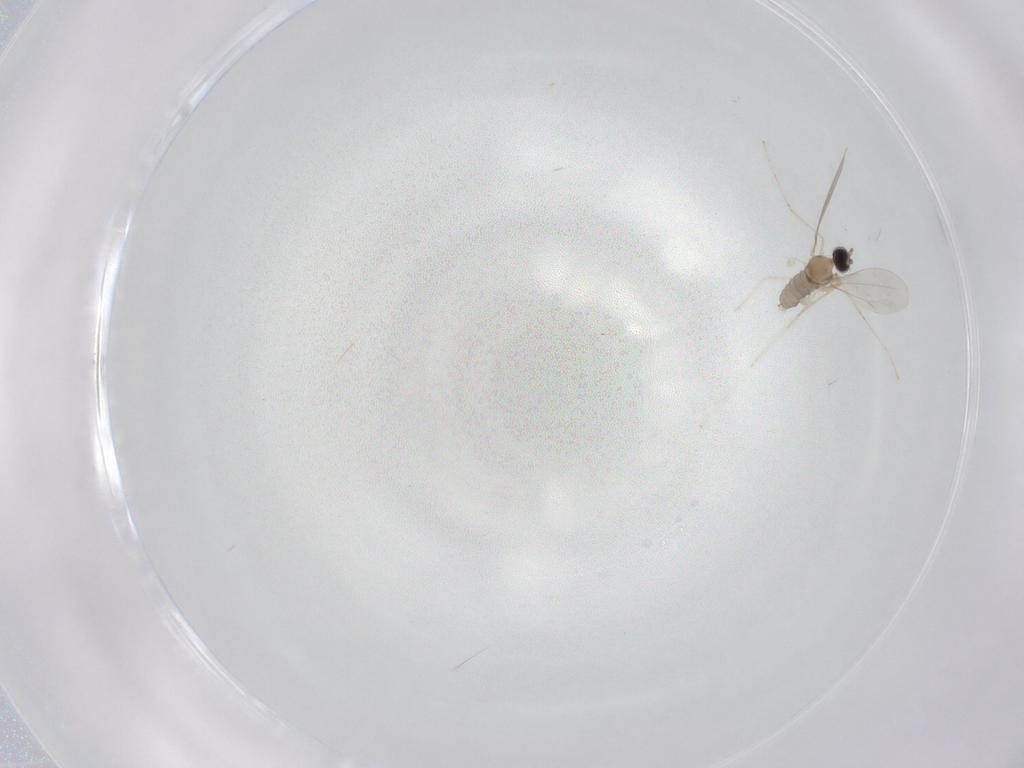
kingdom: Animalia
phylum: Arthropoda
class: Insecta
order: Diptera
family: Cecidomyiidae
